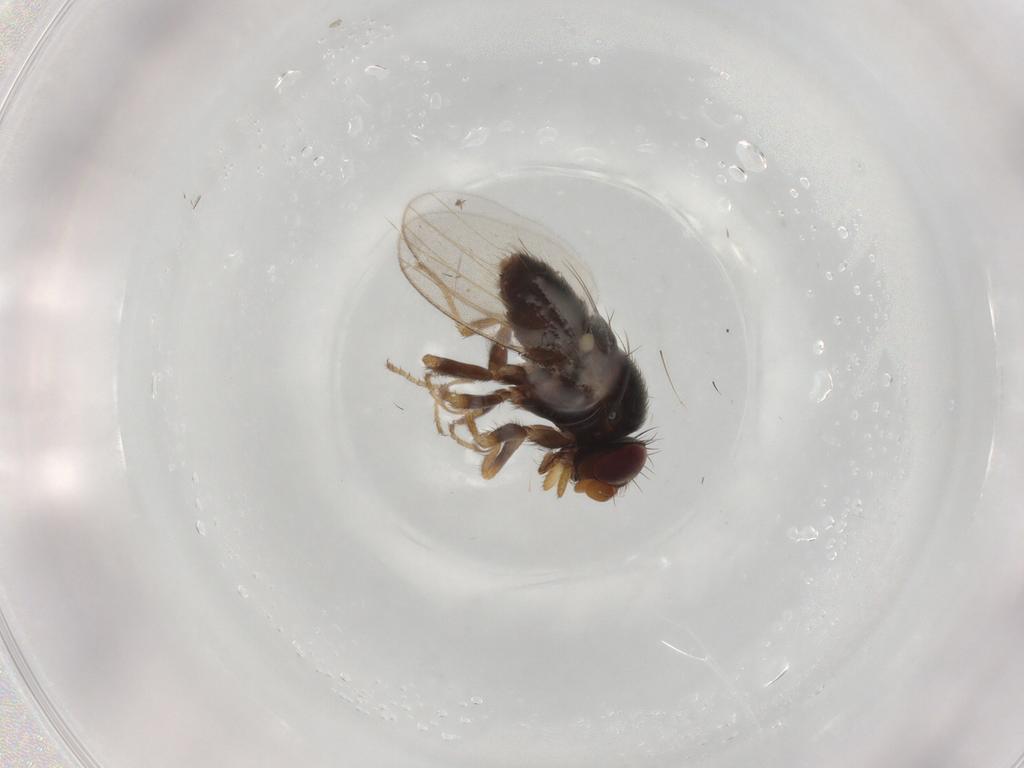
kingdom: Animalia
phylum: Arthropoda
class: Insecta
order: Diptera
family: Milichiidae
